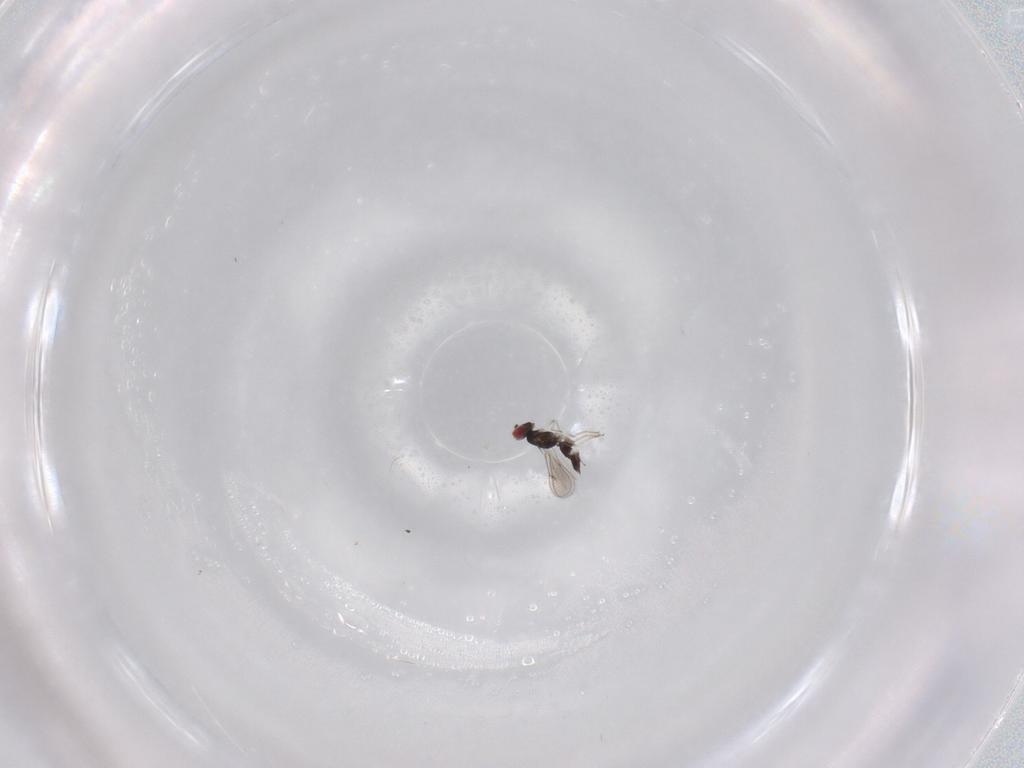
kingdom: Animalia
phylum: Arthropoda
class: Insecta
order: Hymenoptera
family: Eulophidae
